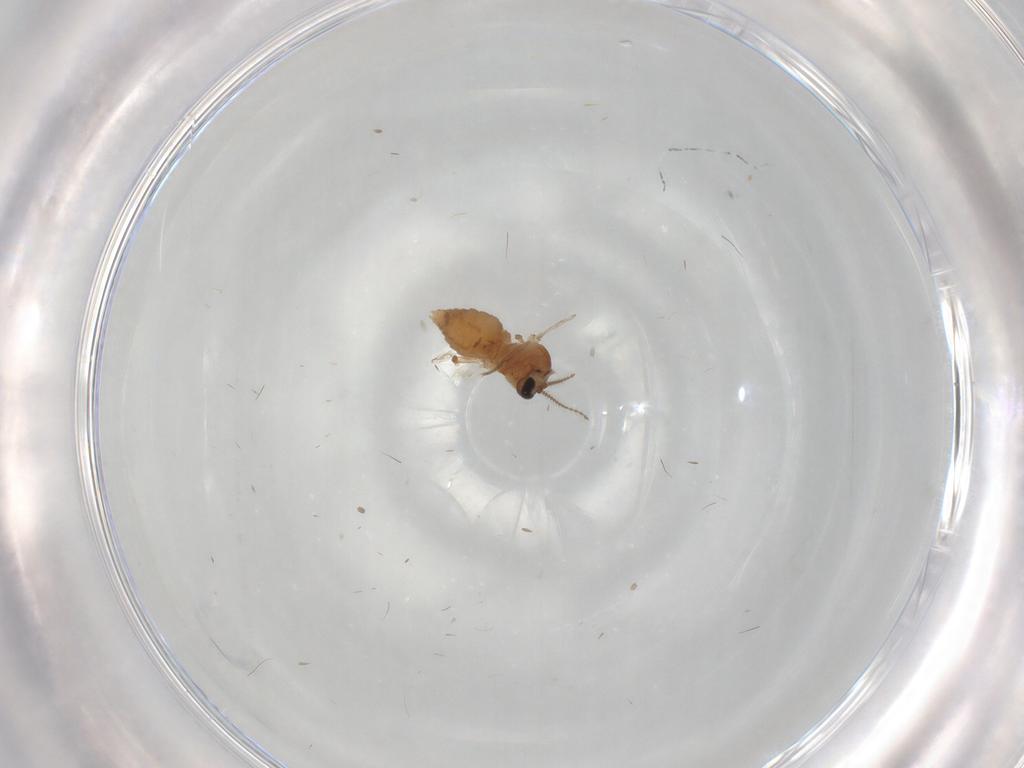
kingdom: Animalia
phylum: Arthropoda
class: Insecta
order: Diptera
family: Ceratopogonidae
